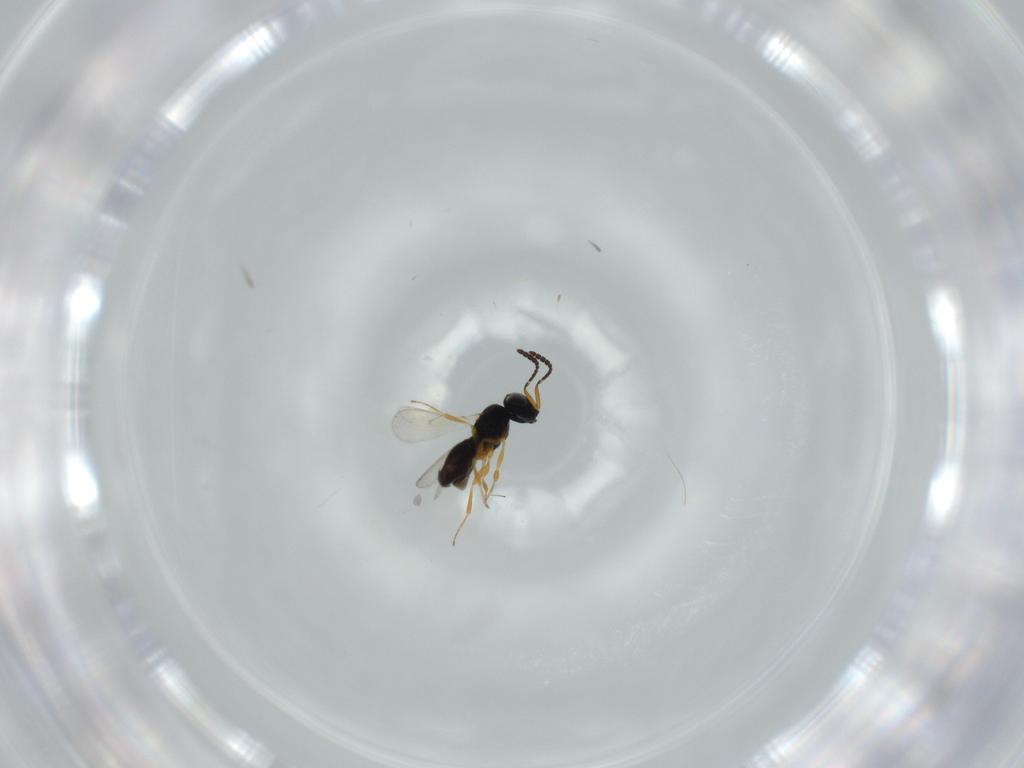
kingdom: Animalia
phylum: Arthropoda
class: Insecta
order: Hymenoptera
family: Scelionidae
